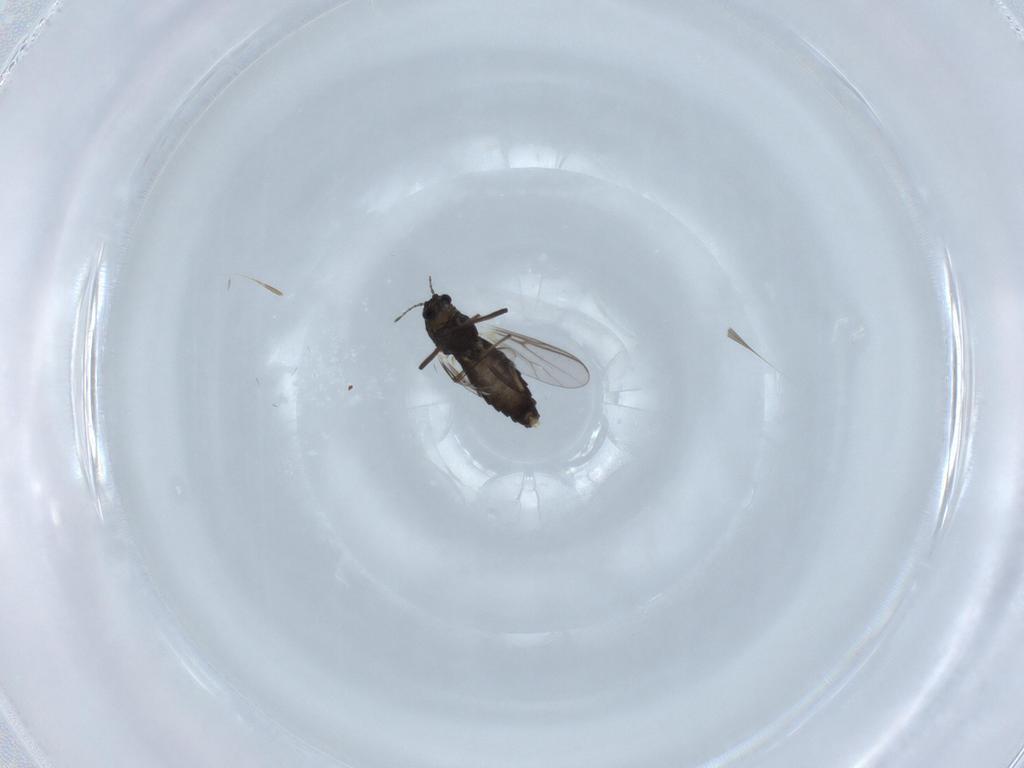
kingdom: Animalia
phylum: Arthropoda
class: Insecta
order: Diptera
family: Chironomidae
